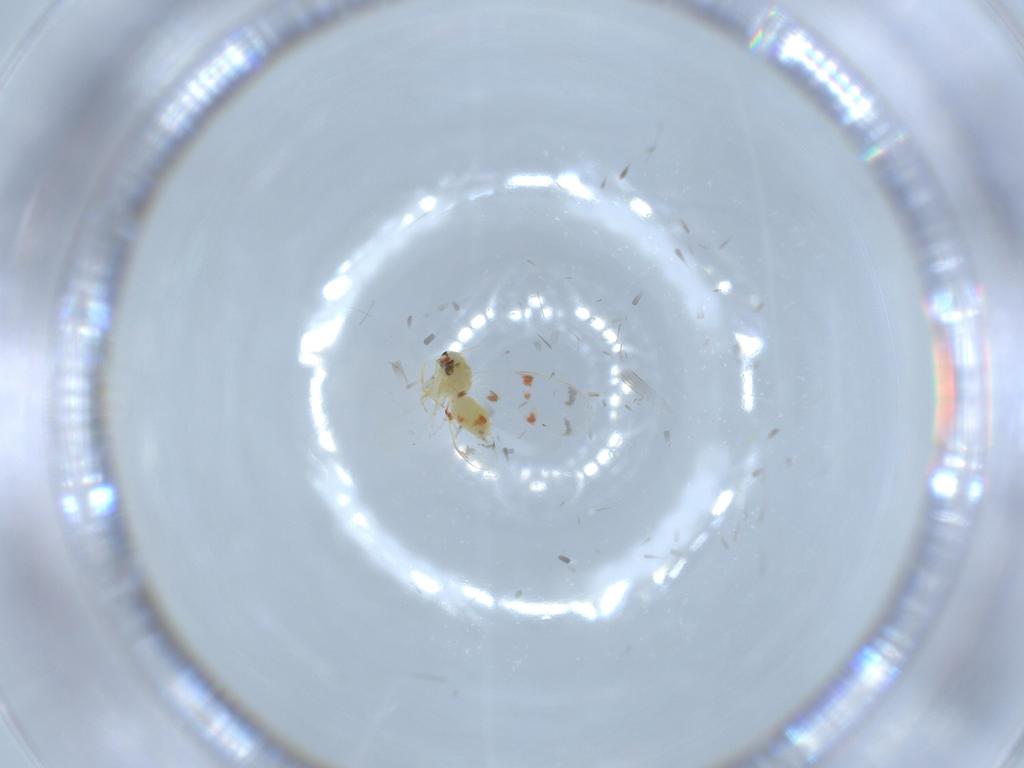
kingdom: Animalia
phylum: Arthropoda
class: Insecta
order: Hemiptera
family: Aleyrodidae
